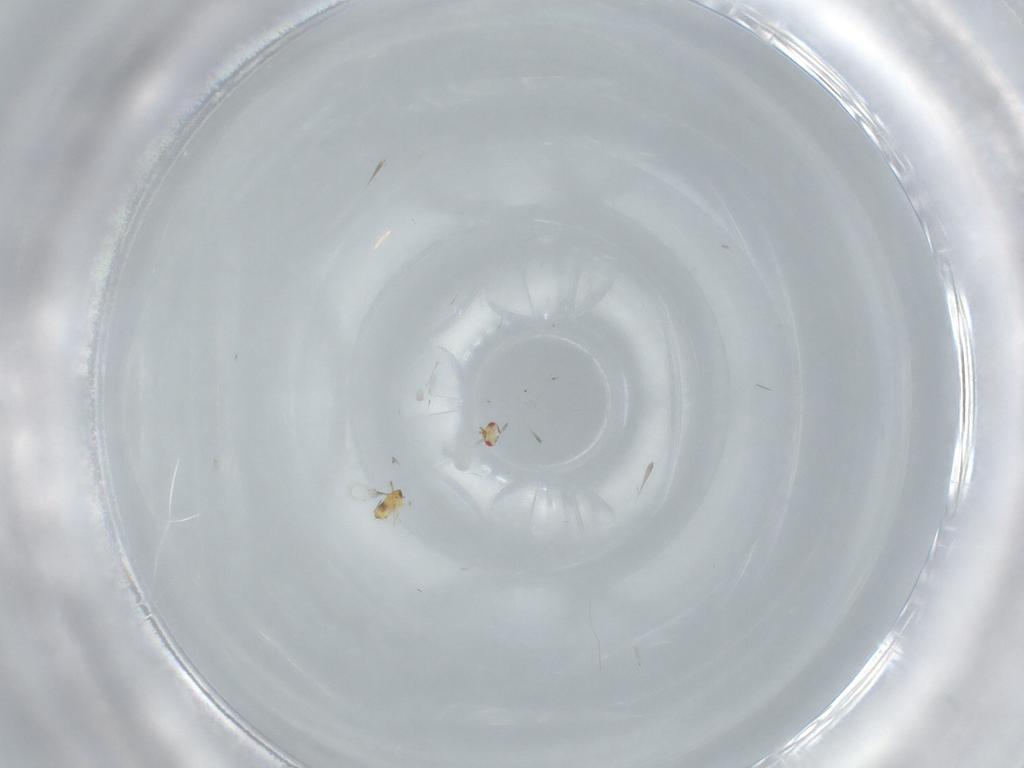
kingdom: Animalia
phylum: Arthropoda
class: Insecta
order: Hymenoptera
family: Trichogrammatidae
